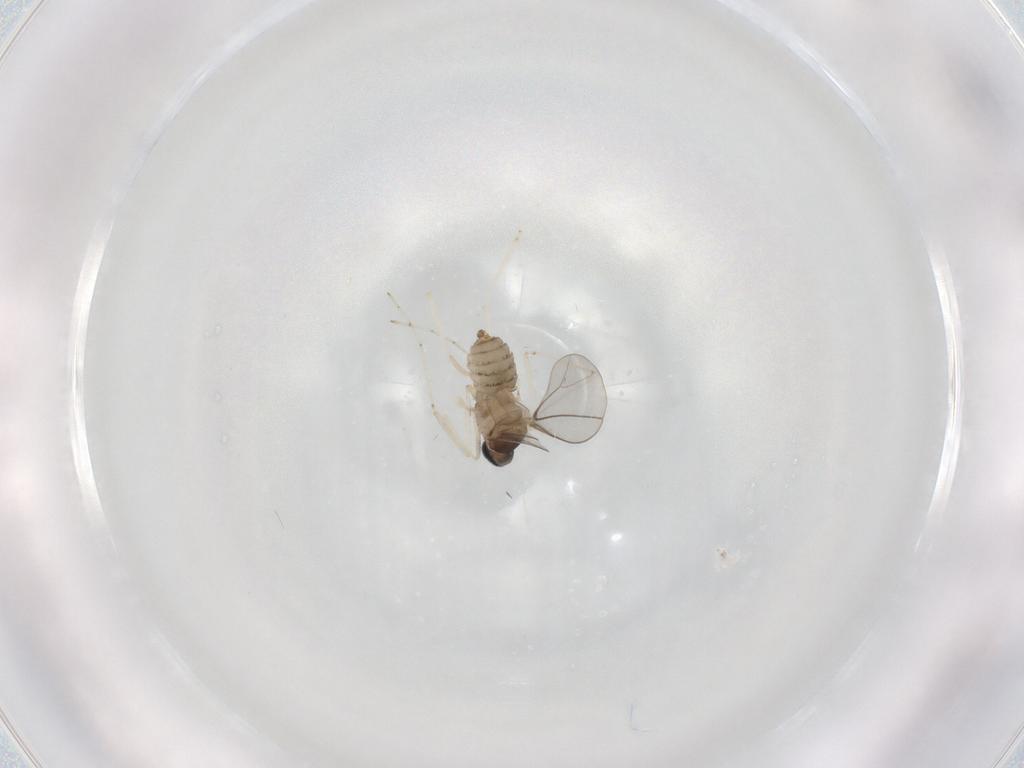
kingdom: Animalia
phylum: Arthropoda
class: Insecta
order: Diptera
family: Cecidomyiidae
